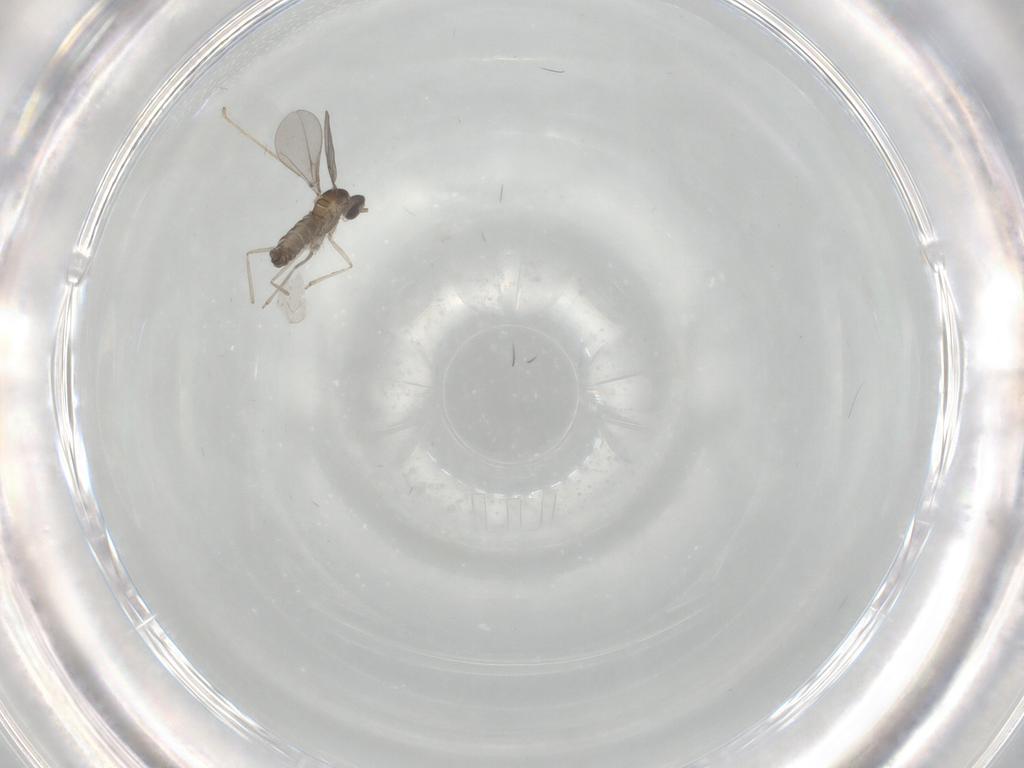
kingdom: Animalia
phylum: Arthropoda
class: Insecta
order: Diptera
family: Cecidomyiidae
